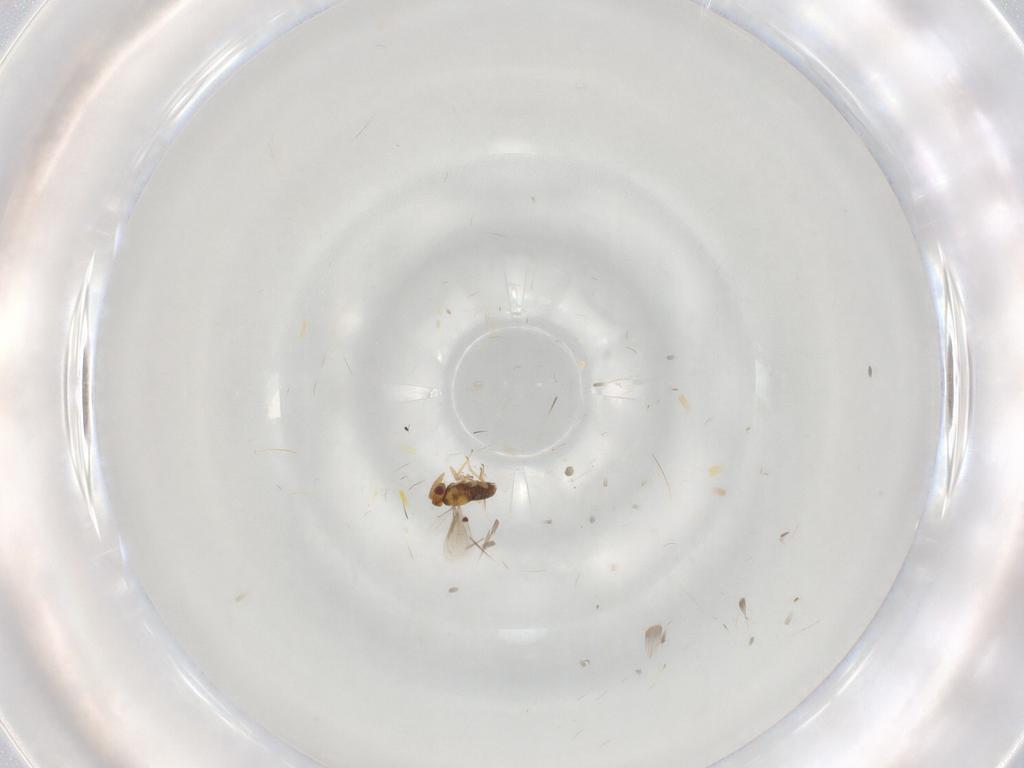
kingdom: Animalia
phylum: Arthropoda
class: Insecta
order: Hymenoptera
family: Aphelinidae
